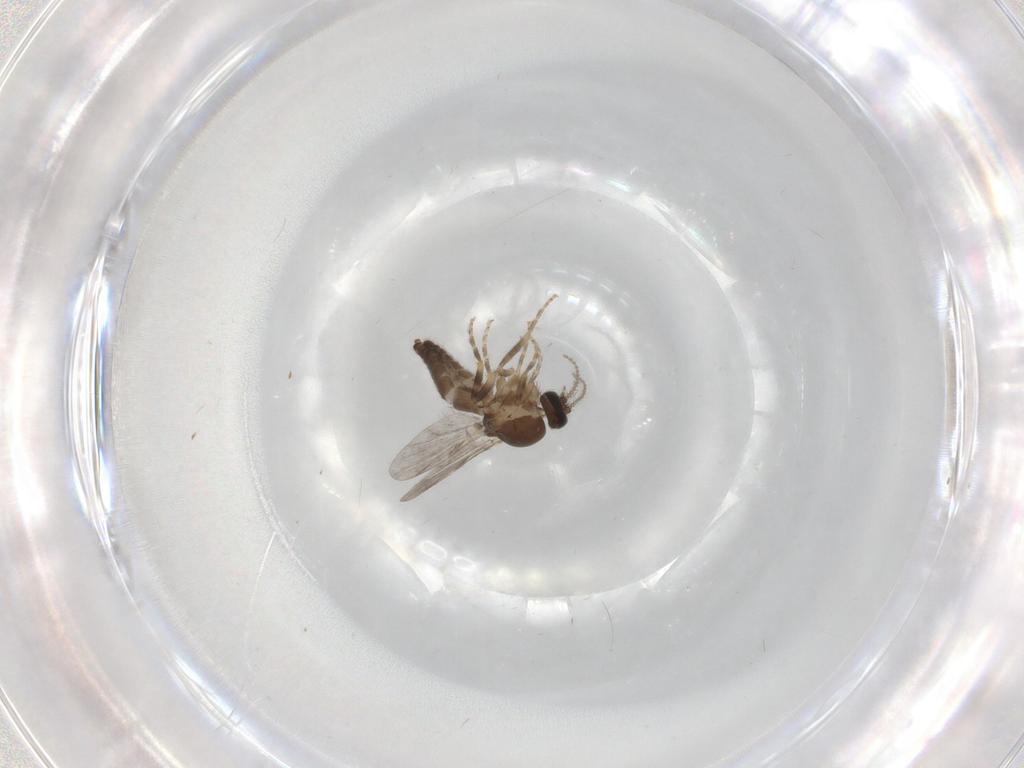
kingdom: Animalia
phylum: Arthropoda
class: Insecta
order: Diptera
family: Ceratopogonidae
